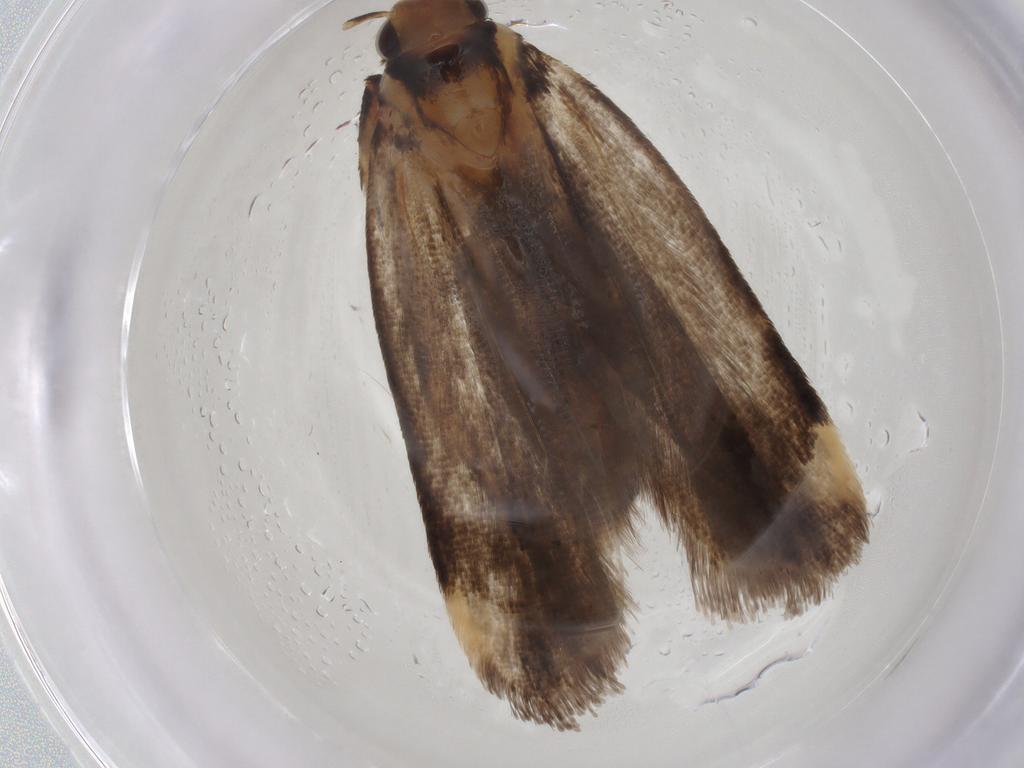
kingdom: Animalia
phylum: Arthropoda
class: Insecta
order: Lepidoptera
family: Gelechiidae
